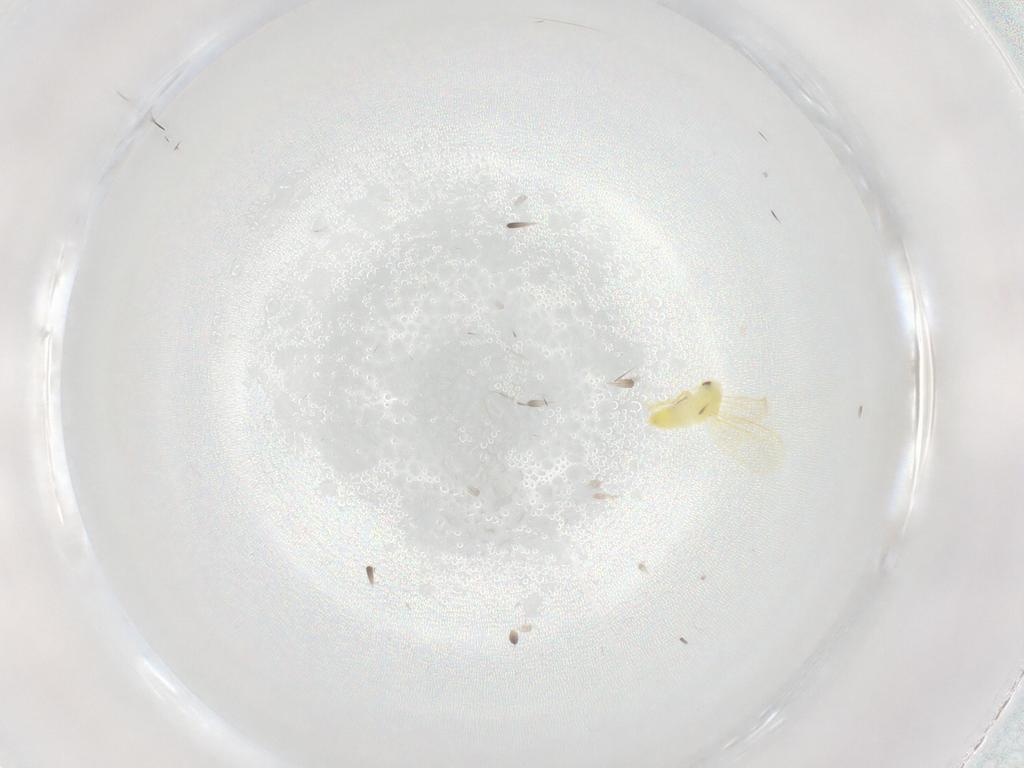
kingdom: Animalia
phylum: Arthropoda
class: Insecta
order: Hemiptera
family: Aleyrodidae
